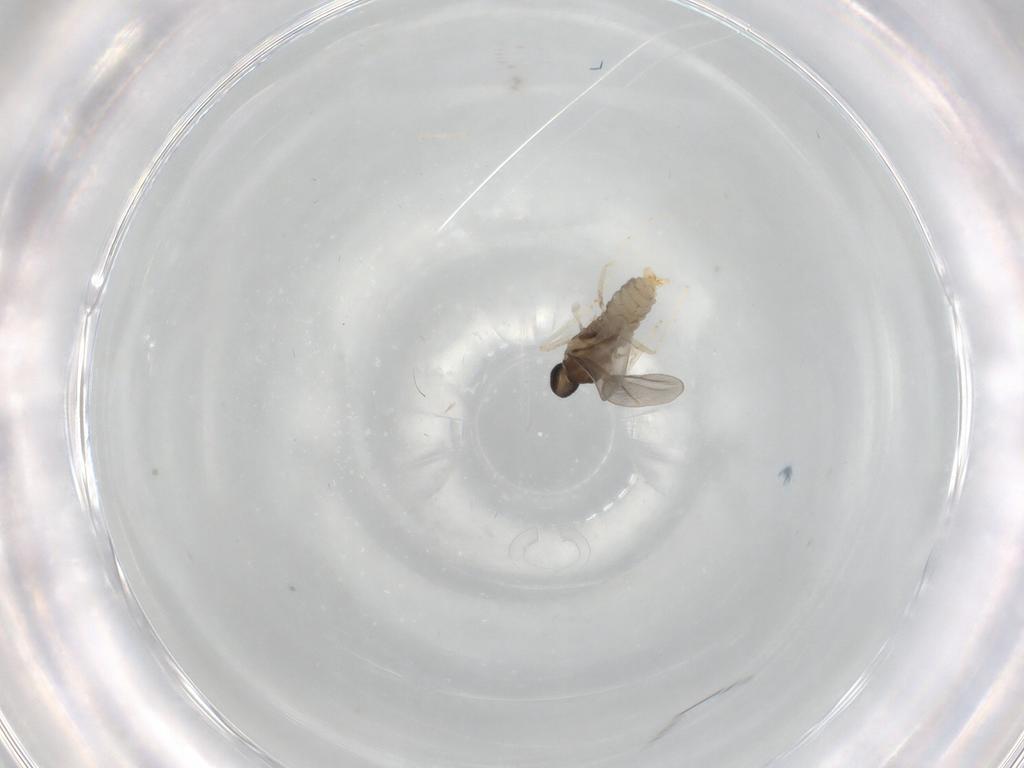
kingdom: Animalia
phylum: Arthropoda
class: Insecta
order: Diptera
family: Cecidomyiidae
